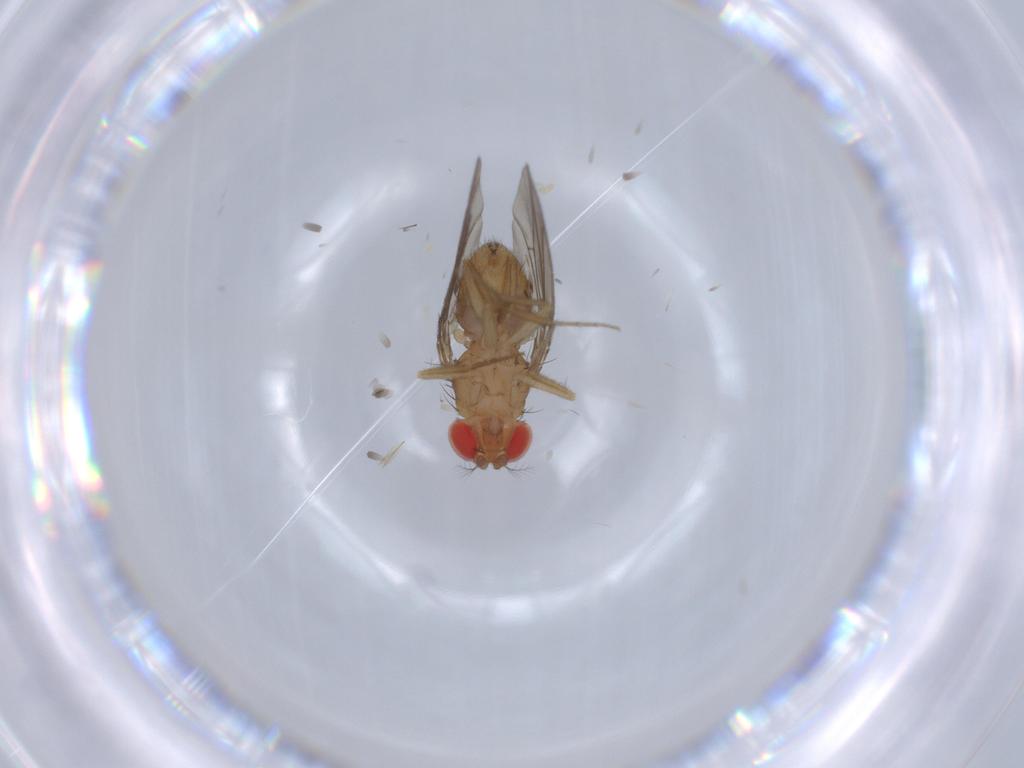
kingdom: Animalia
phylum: Arthropoda
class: Insecta
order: Diptera
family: Drosophilidae
